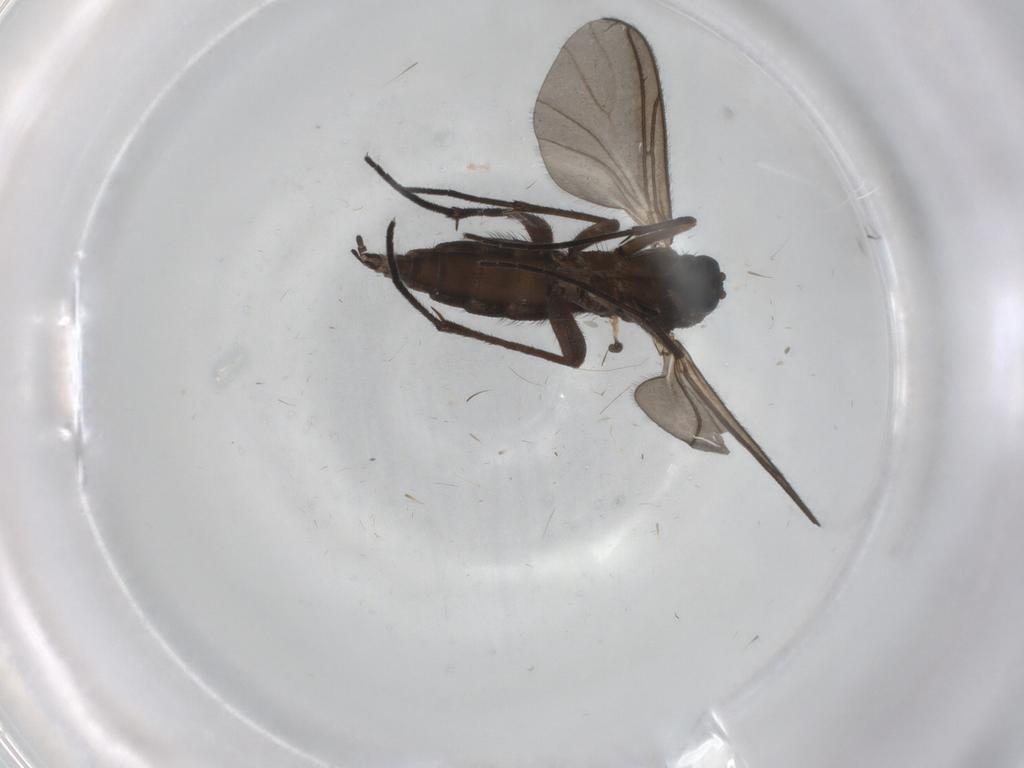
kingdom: Animalia
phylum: Arthropoda
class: Insecta
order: Diptera
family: Sciaridae
